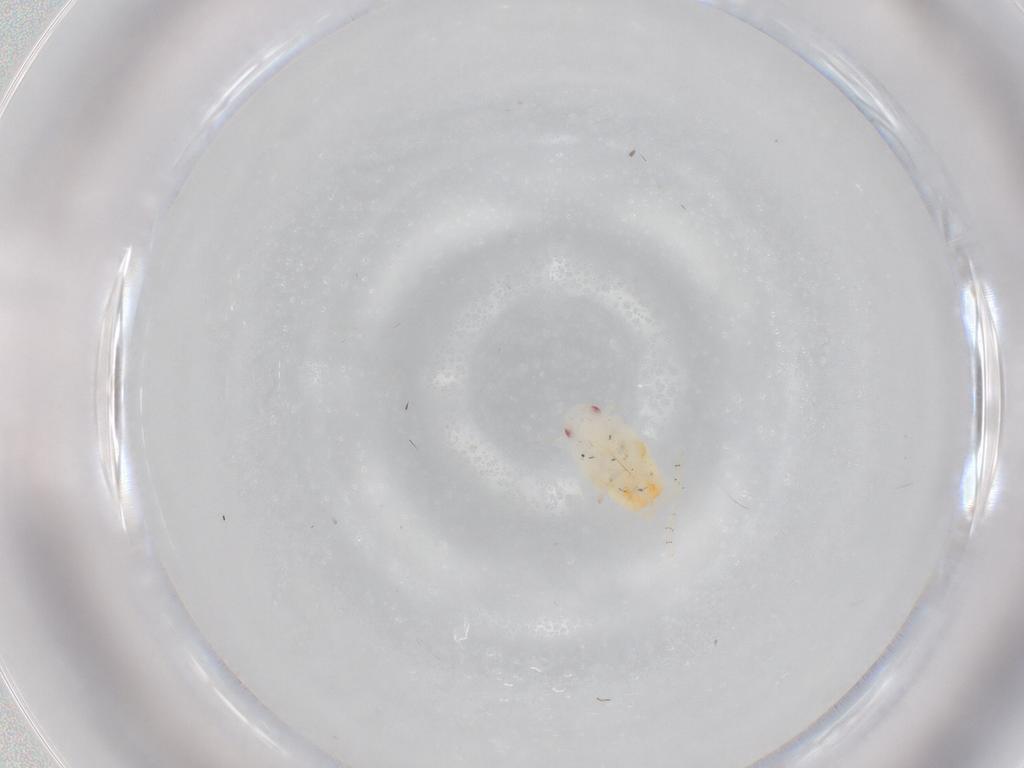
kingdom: Animalia
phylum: Arthropoda
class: Insecta
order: Hemiptera
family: Flatidae
